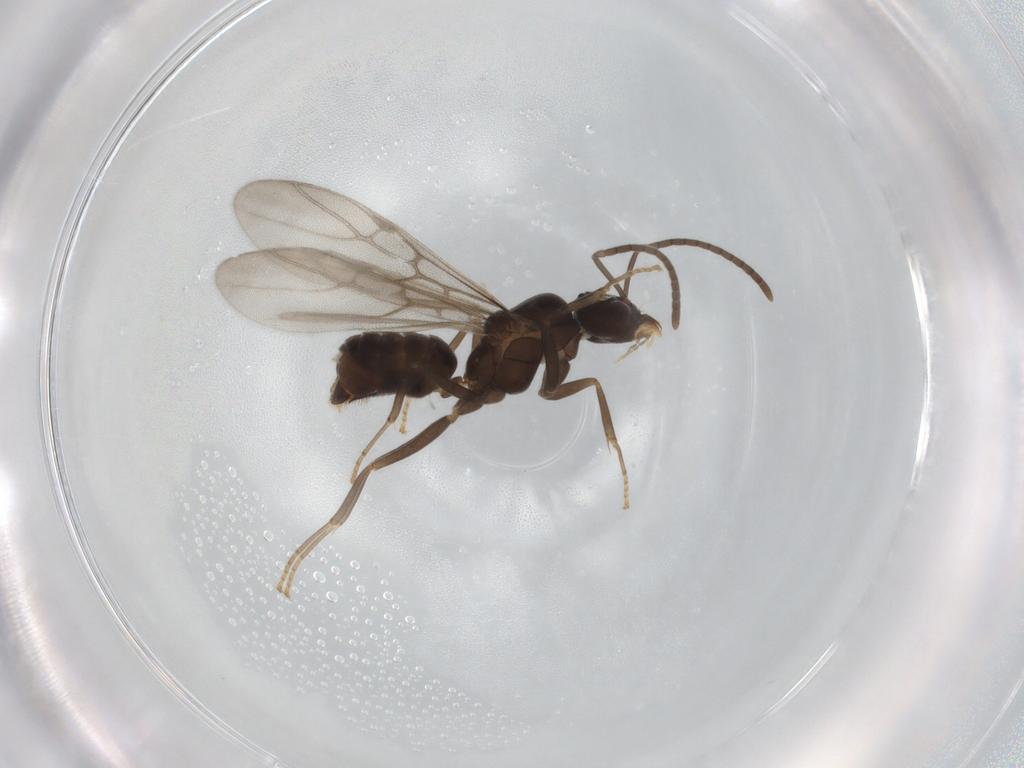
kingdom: Animalia
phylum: Arthropoda
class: Insecta
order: Hymenoptera
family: Formicidae
